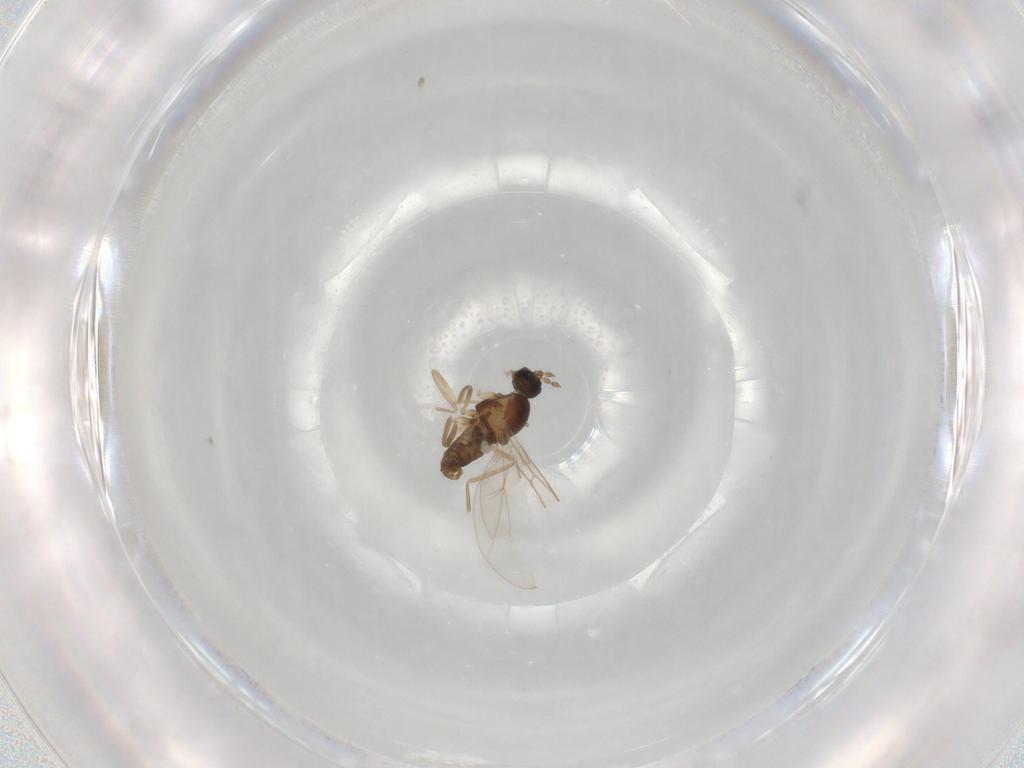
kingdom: Animalia
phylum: Arthropoda
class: Insecta
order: Diptera
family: Cecidomyiidae
